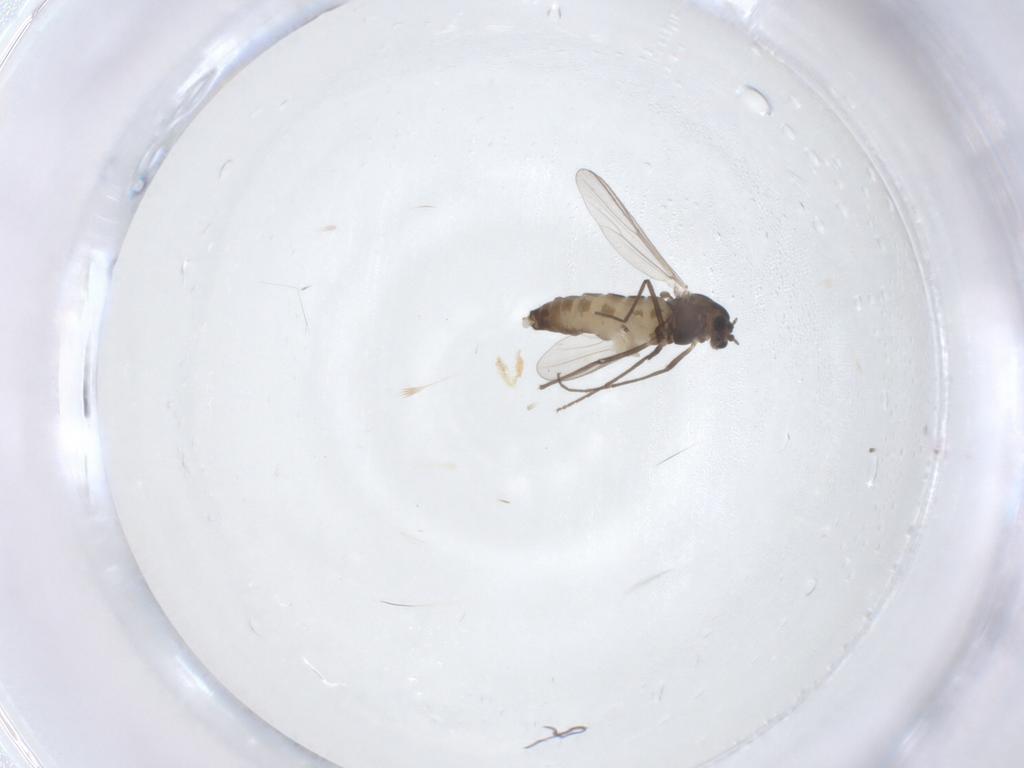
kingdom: Animalia
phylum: Arthropoda
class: Insecta
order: Diptera
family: Chironomidae
